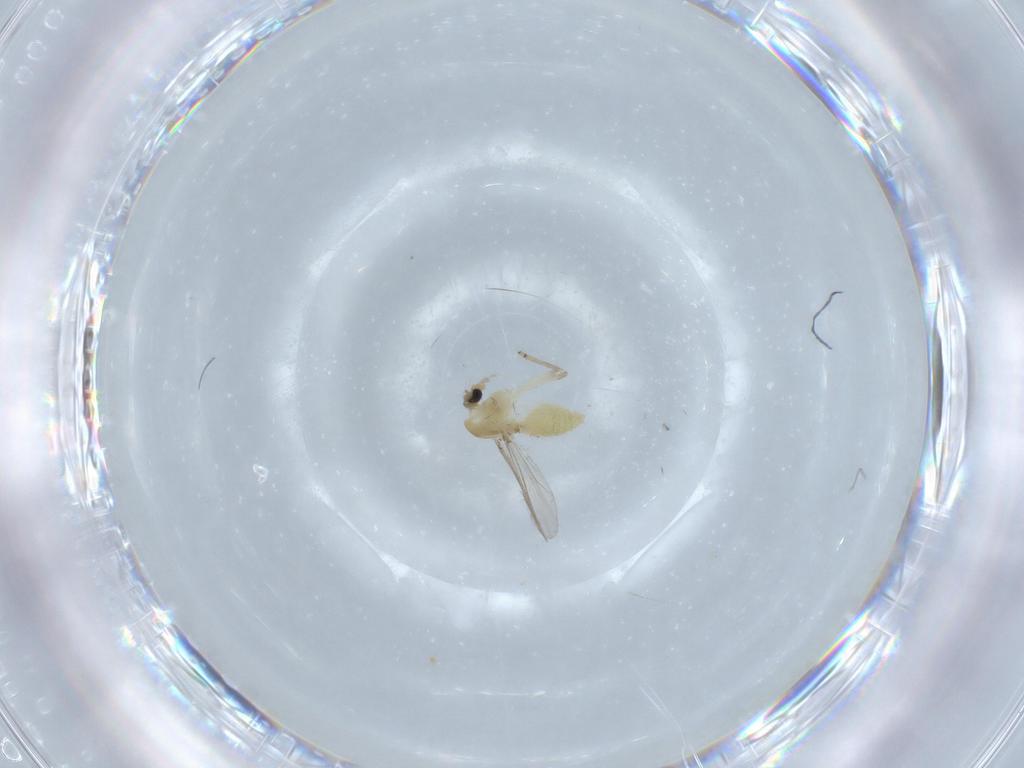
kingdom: Animalia
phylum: Arthropoda
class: Insecta
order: Diptera
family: Chironomidae
